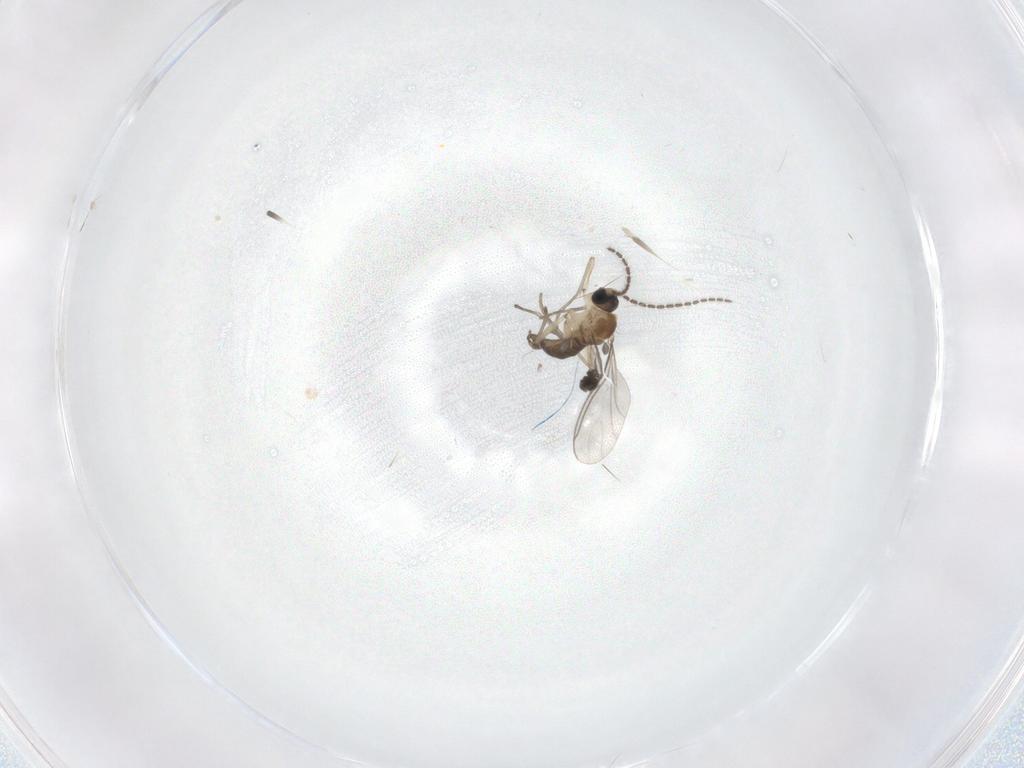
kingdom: Animalia
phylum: Arthropoda
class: Insecta
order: Diptera
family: Sciaridae
